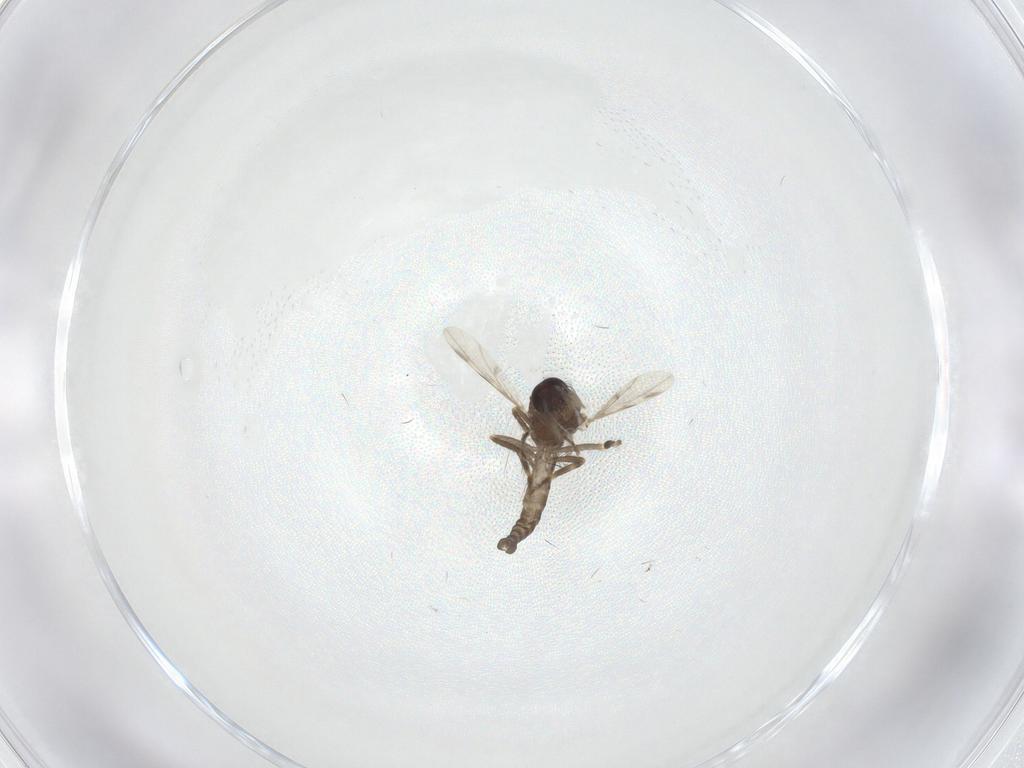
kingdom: Animalia
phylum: Arthropoda
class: Insecta
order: Diptera
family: Ceratopogonidae
